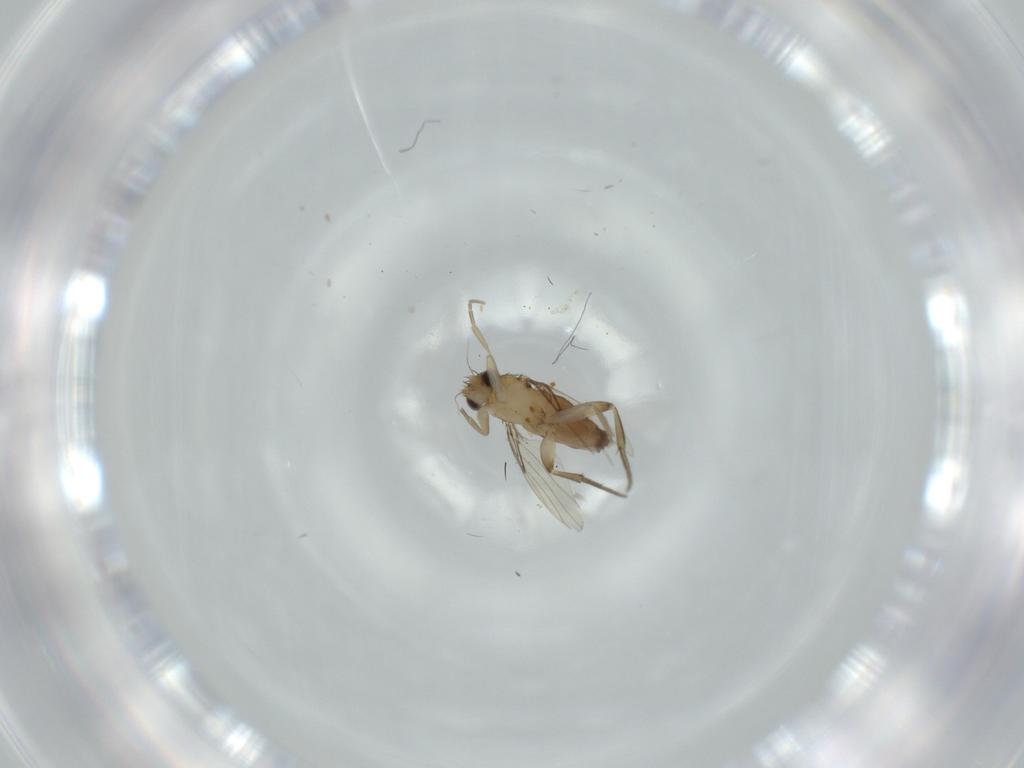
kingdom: Animalia
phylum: Arthropoda
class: Insecta
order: Diptera
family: Phoridae
